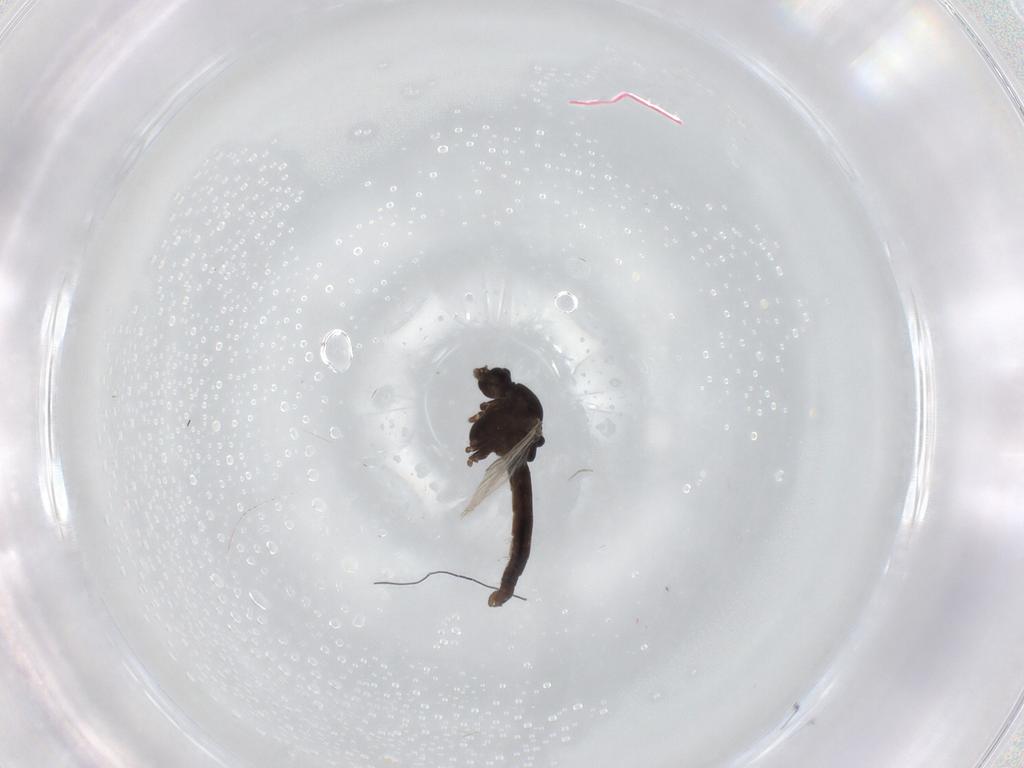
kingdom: Animalia
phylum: Arthropoda
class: Insecta
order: Diptera
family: Chironomidae
